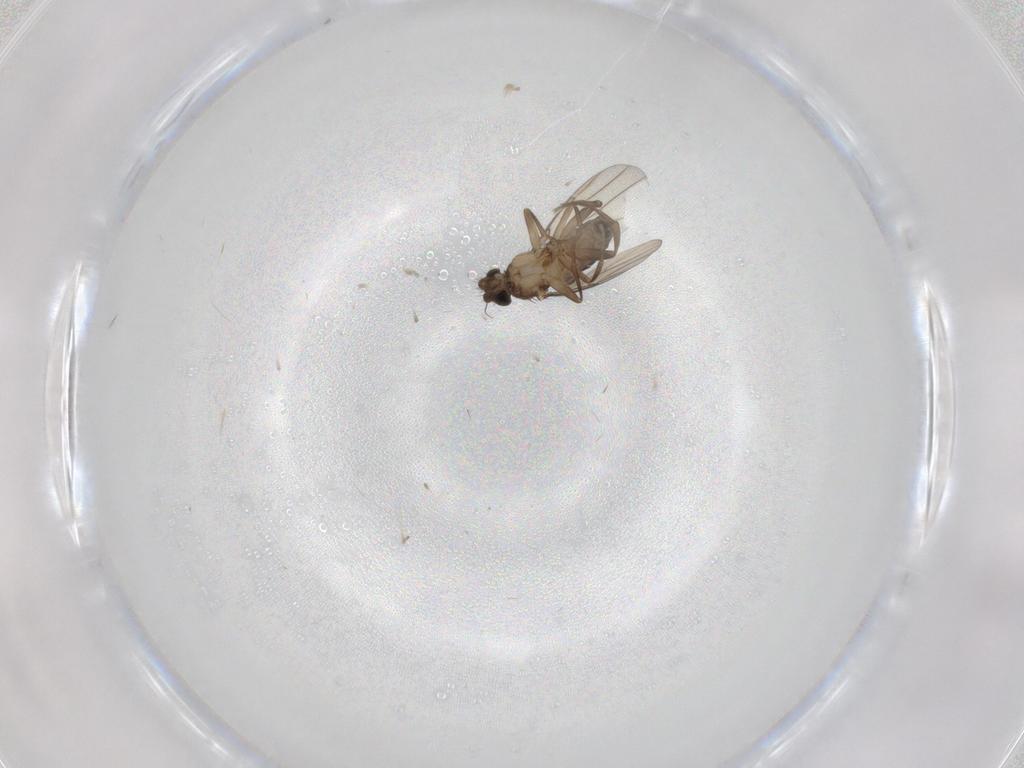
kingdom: Animalia
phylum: Arthropoda
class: Insecta
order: Diptera
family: Phoridae
